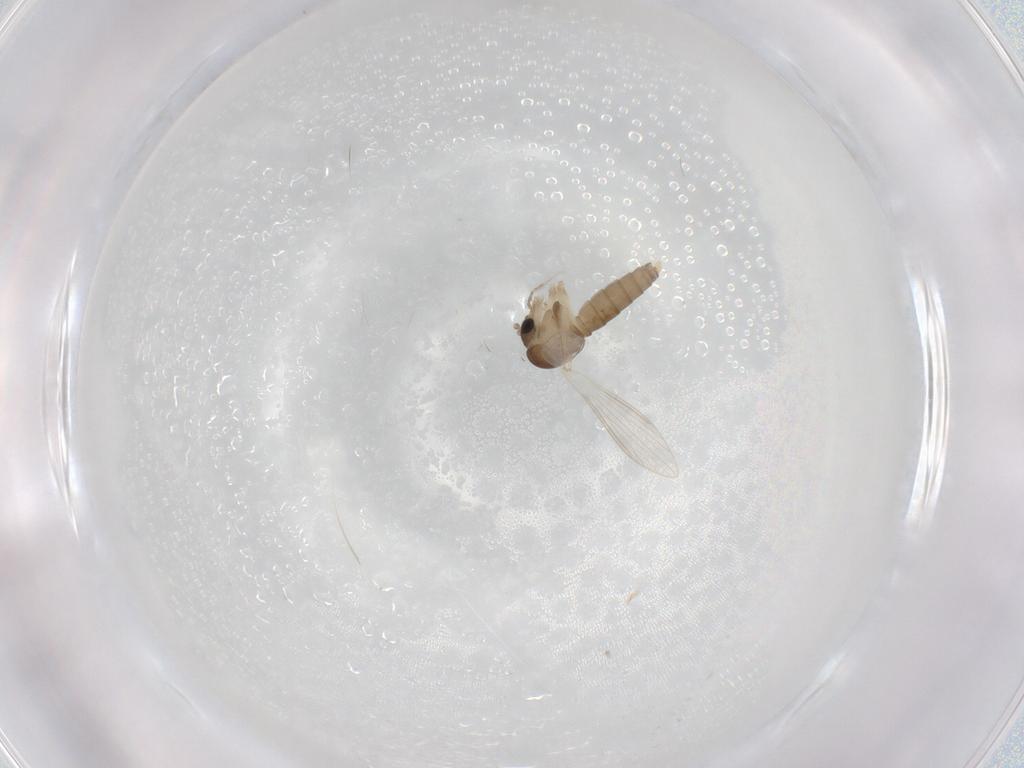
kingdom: Animalia
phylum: Arthropoda
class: Insecta
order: Diptera
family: Psychodidae
